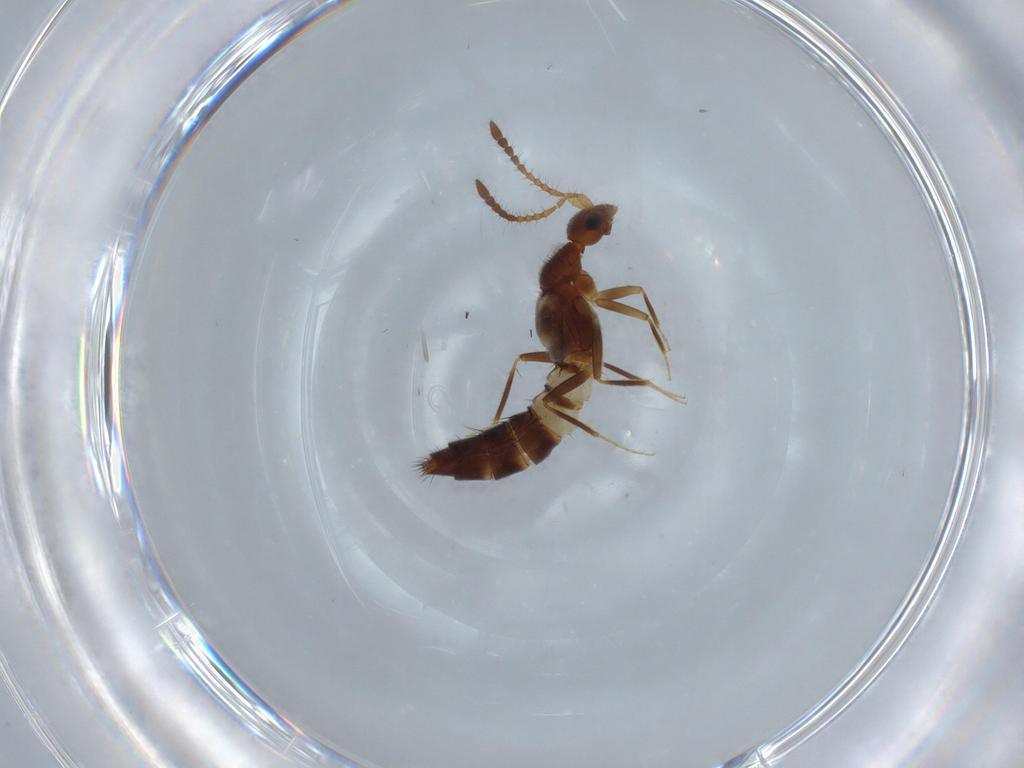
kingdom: Animalia
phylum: Arthropoda
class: Insecta
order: Coleoptera
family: Staphylinidae
